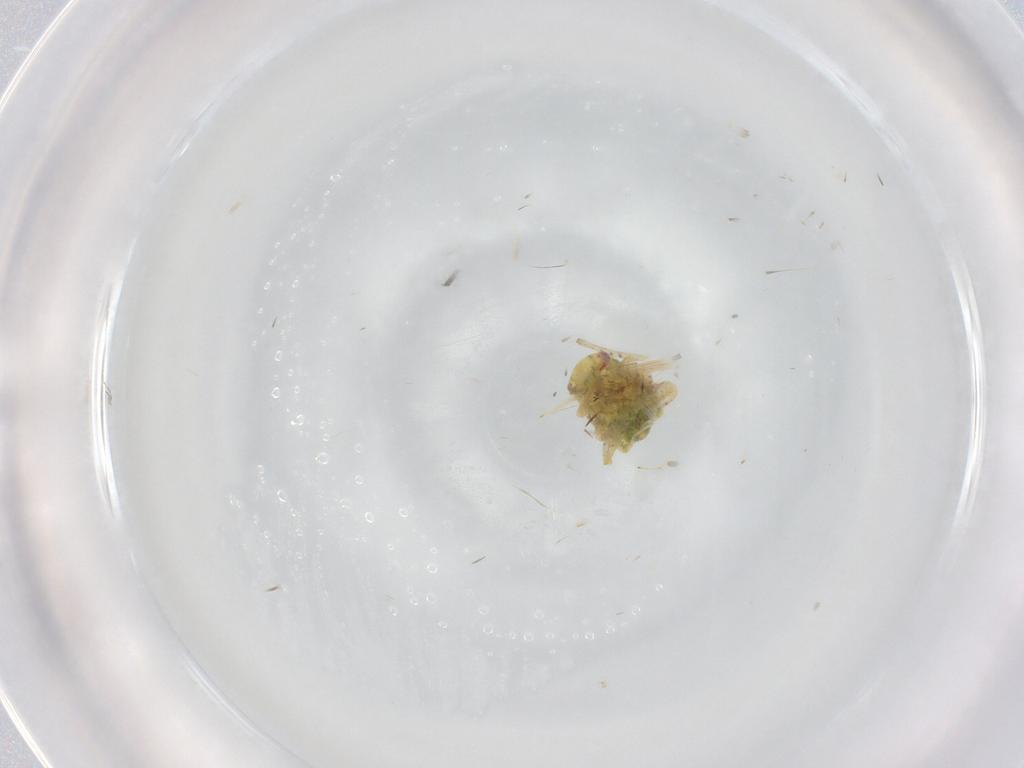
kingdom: Animalia
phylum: Arthropoda
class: Insecta
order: Hemiptera
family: Miridae
